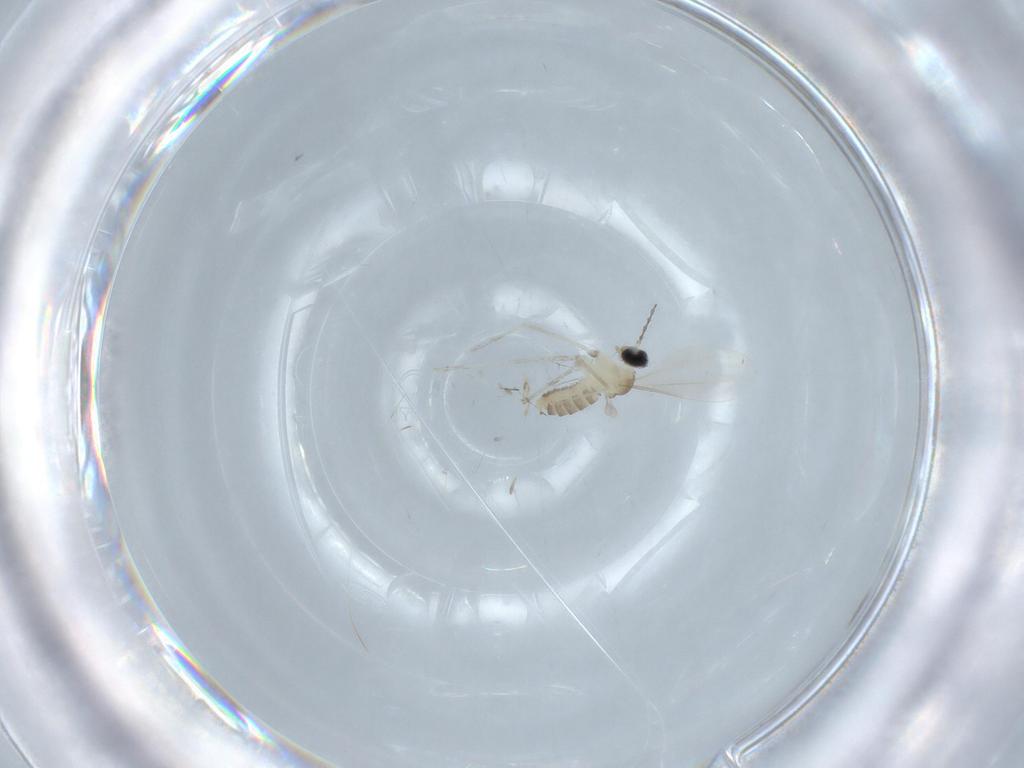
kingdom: Animalia
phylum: Arthropoda
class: Insecta
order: Diptera
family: Cecidomyiidae
